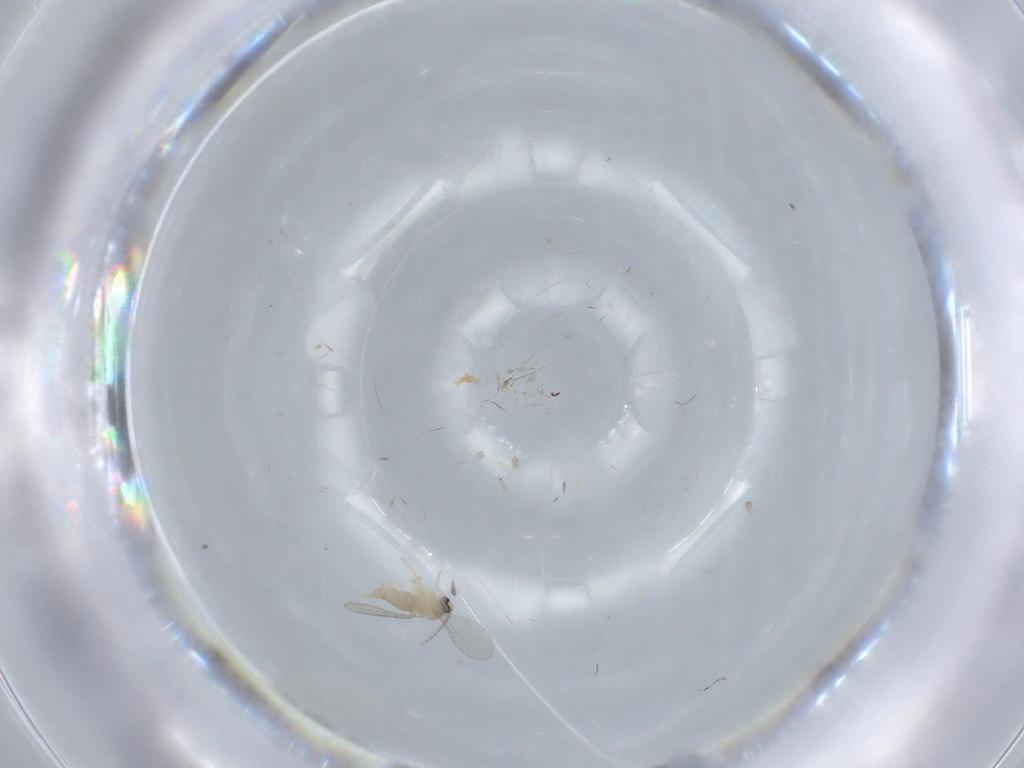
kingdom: Animalia
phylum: Arthropoda
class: Insecta
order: Diptera
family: Cecidomyiidae
